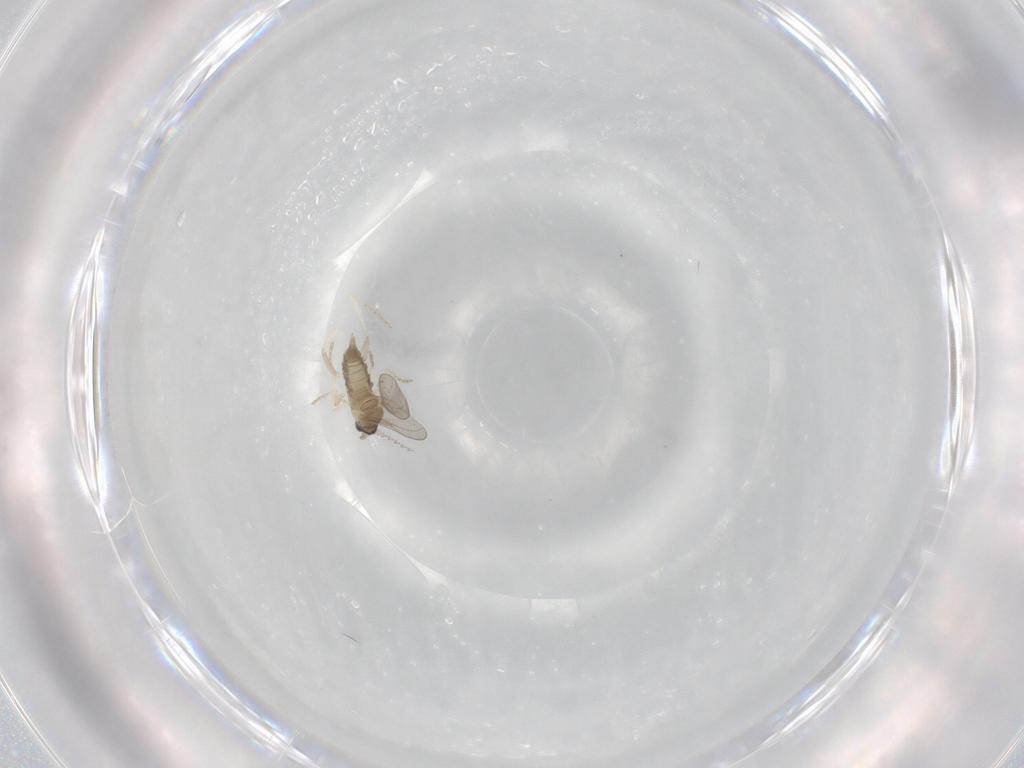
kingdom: Animalia
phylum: Arthropoda
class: Insecta
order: Diptera
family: Cecidomyiidae
